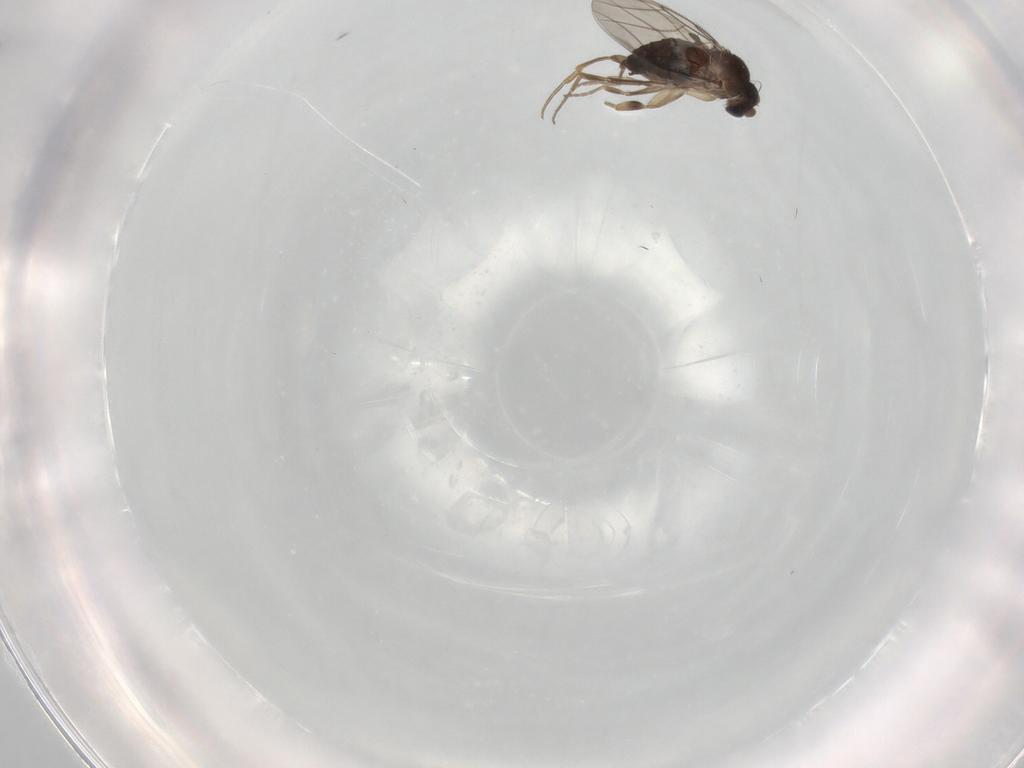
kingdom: Animalia
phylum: Arthropoda
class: Insecta
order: Diptera
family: Phoridae
